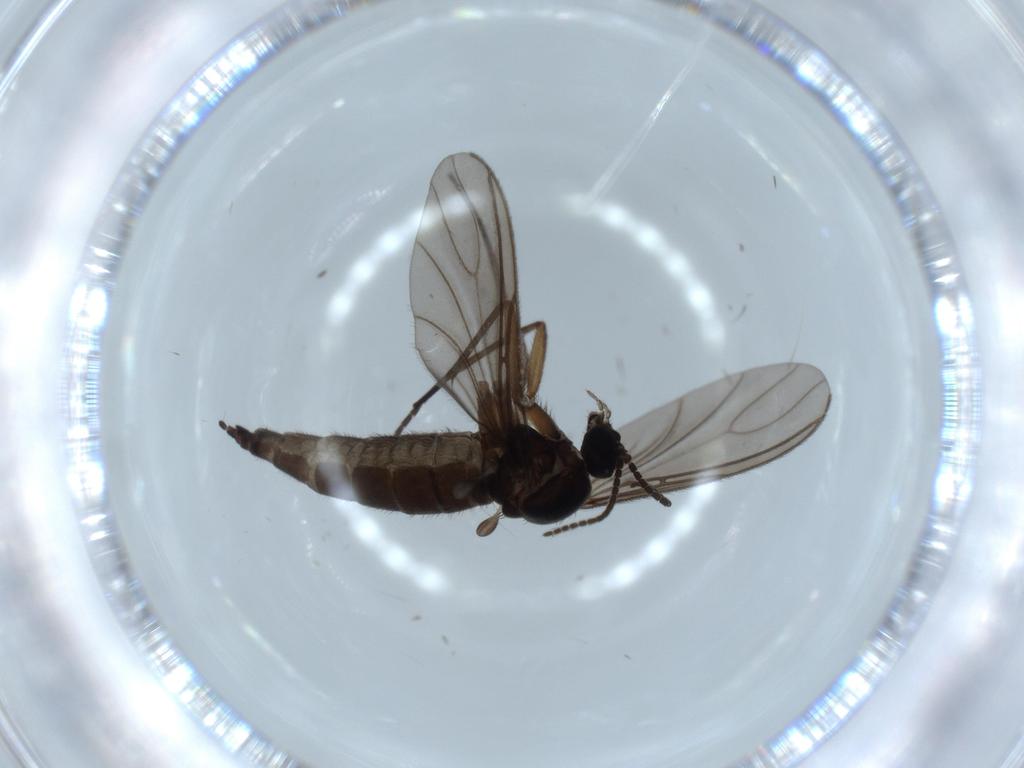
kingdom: Animalia
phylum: Arthropoda
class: Insecta
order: Diptera
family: Sciaridae
